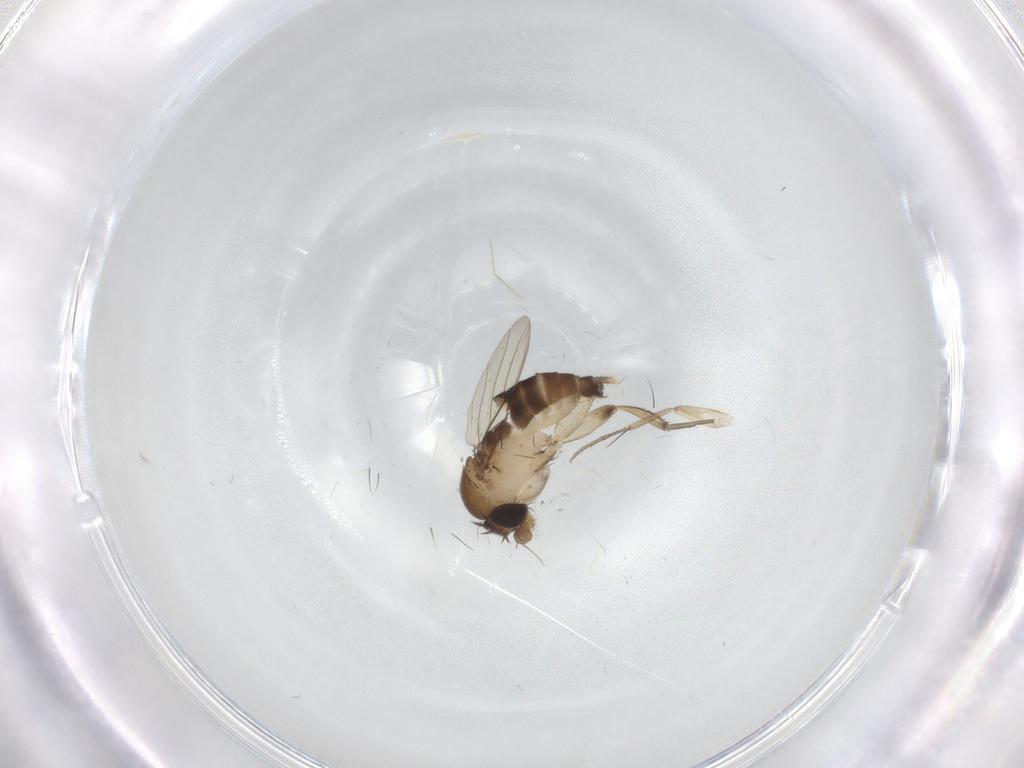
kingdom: Animalia
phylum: Arthropoda
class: Insecta
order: Diptera
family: Phoridae
